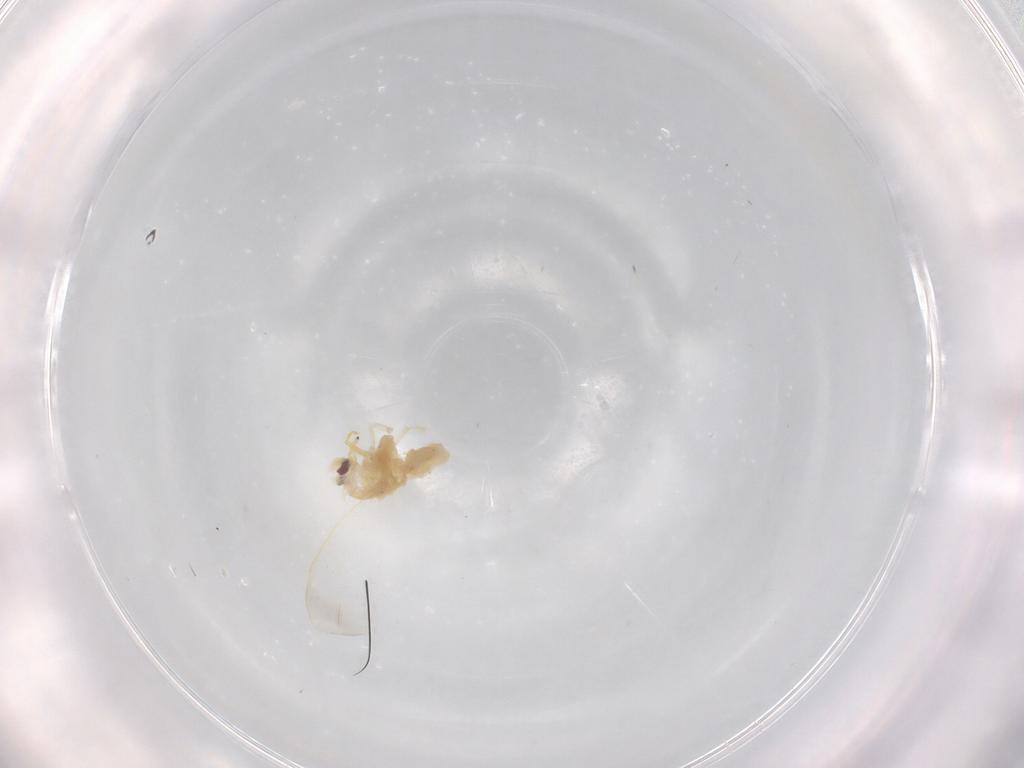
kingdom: Animalia
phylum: Arthropoda
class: Insecta
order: Hemiptera
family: Aleyrodidae
